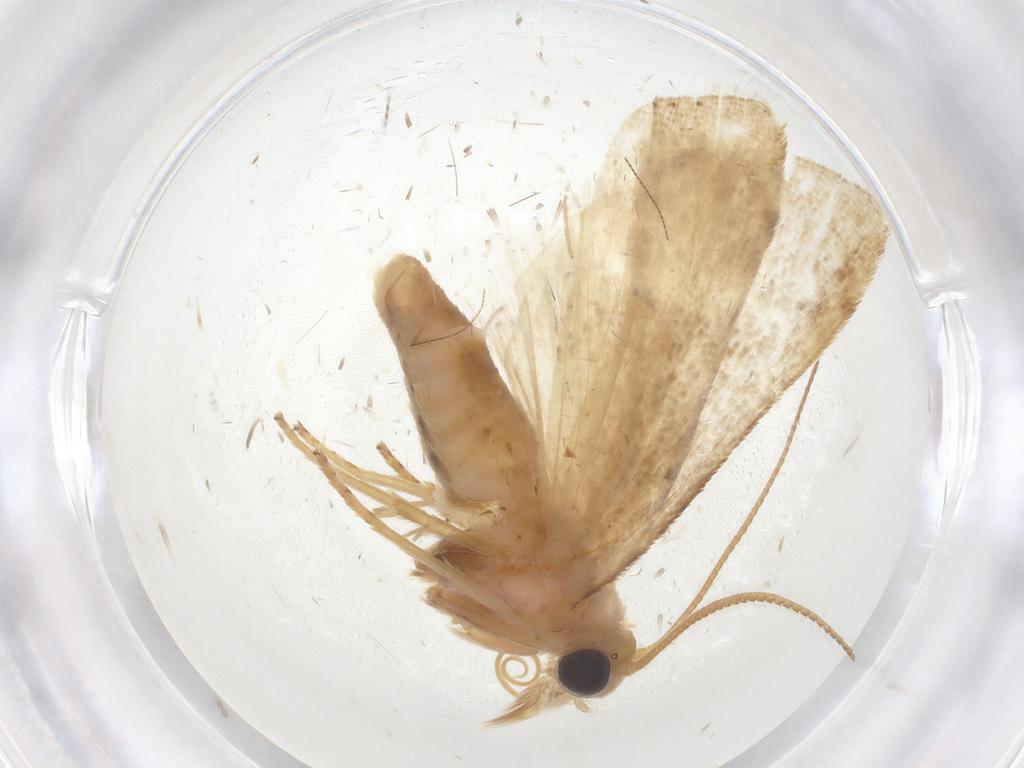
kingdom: Animalia
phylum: Arthropoda
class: Insecta
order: Lepidoptera
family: Pyralidae
